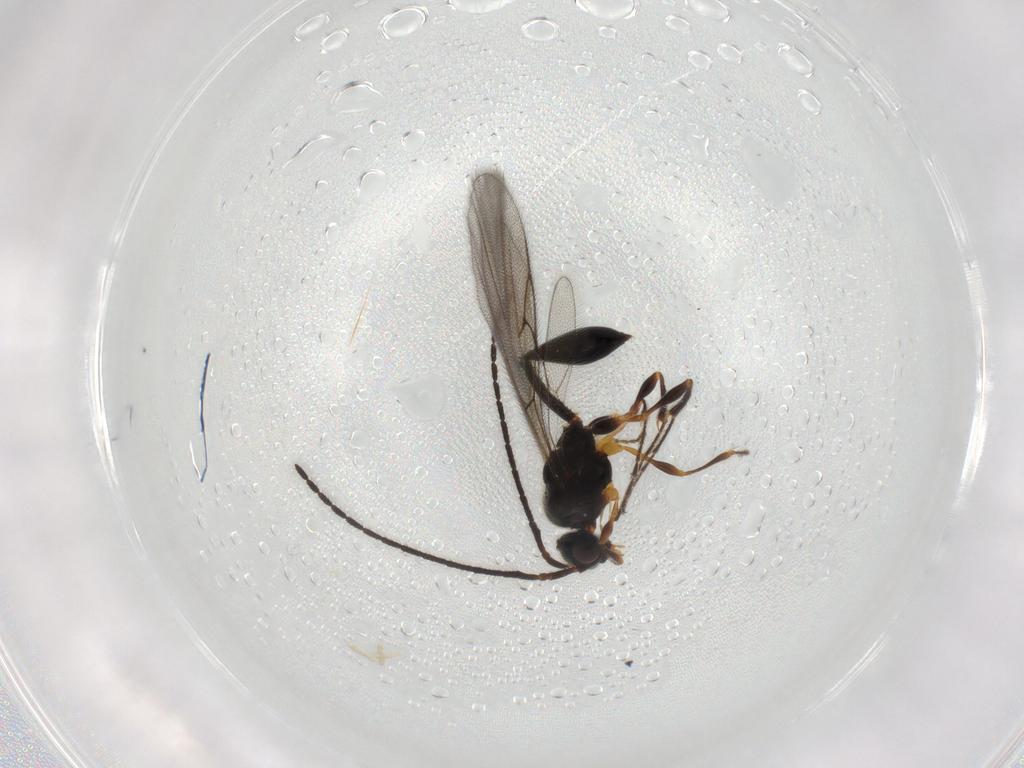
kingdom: Animalia
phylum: Arthropoda
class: Insecta
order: Hymenoptera
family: Diapriidae
